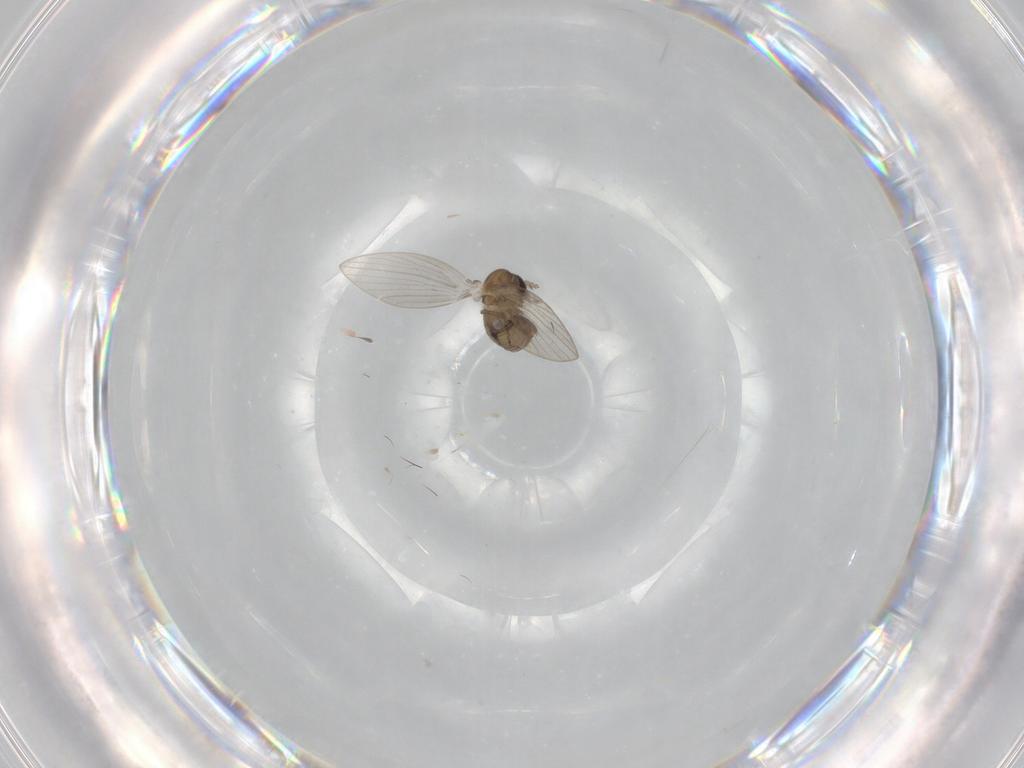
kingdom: Animalia
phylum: Arthropoda
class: Insecta
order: Diptera
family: Psychodidae
